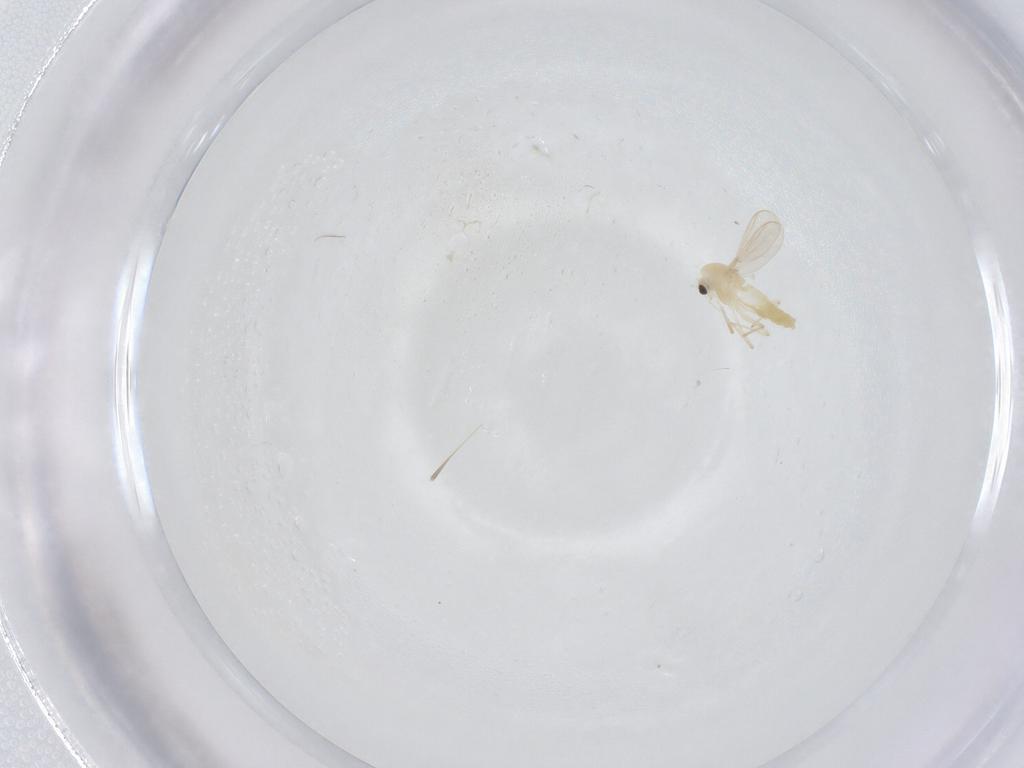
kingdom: Animalia
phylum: Arthropoda
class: Insecta
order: Diptera
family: Chironomidae
